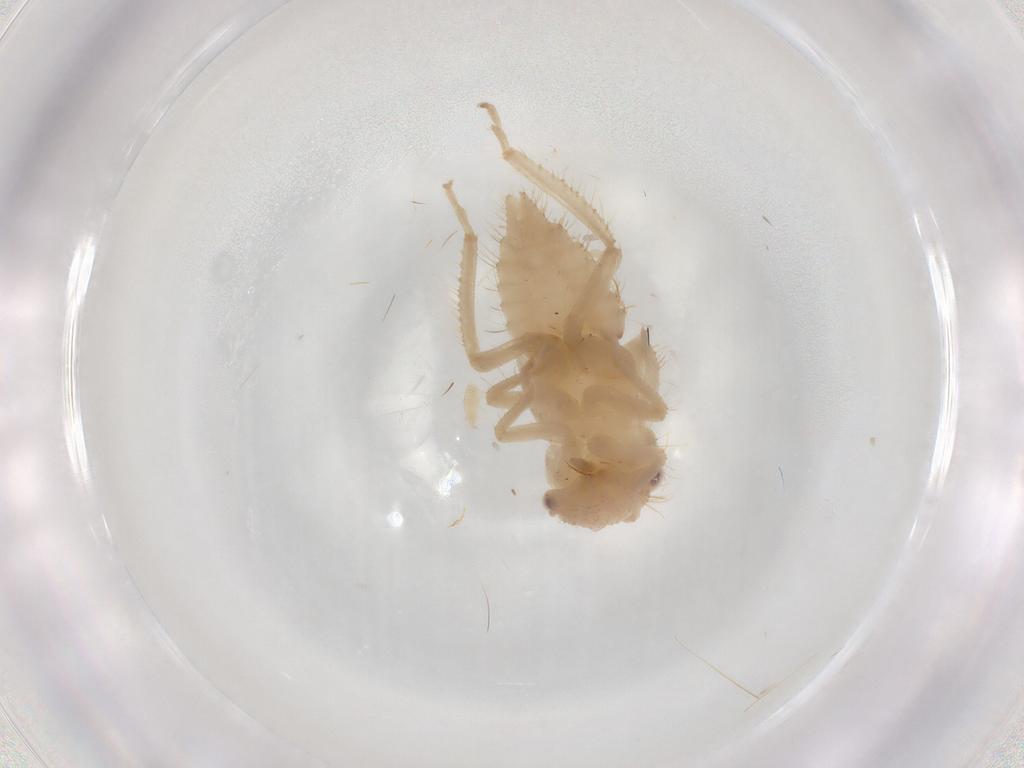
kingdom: Animalia
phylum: Arthropoda
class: Insecta
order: Hemiptera
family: Cicadellidae
